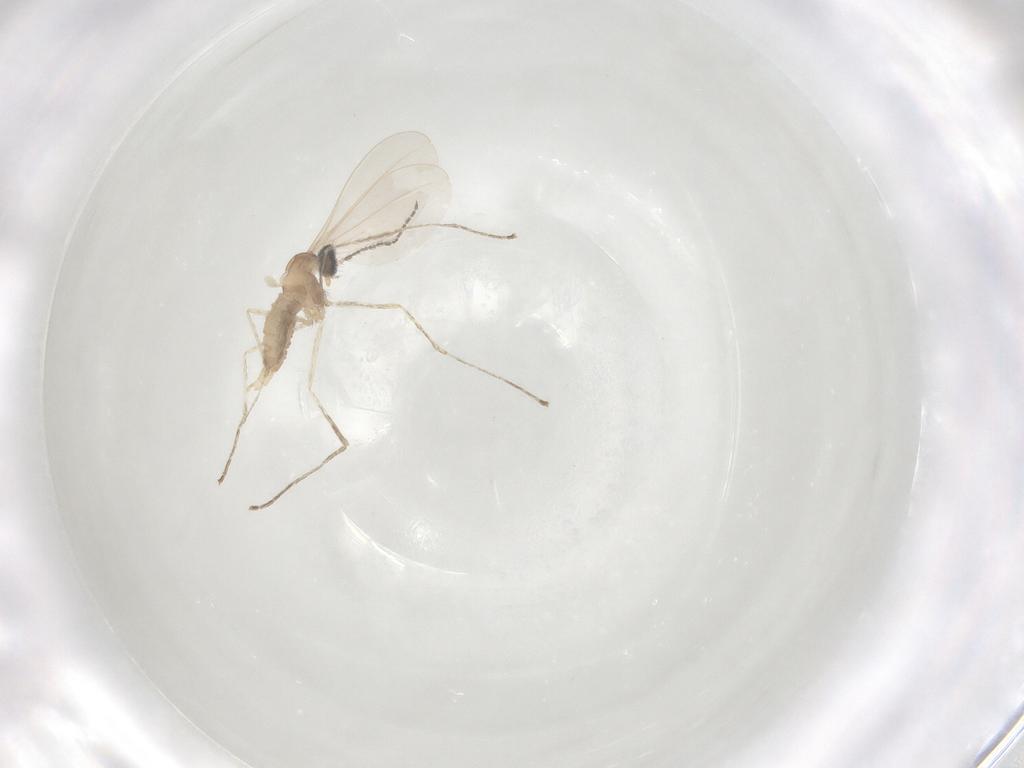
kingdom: Animalia
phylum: Arthropoda
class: Insecta
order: Diptera
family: Cecidomyiidae
